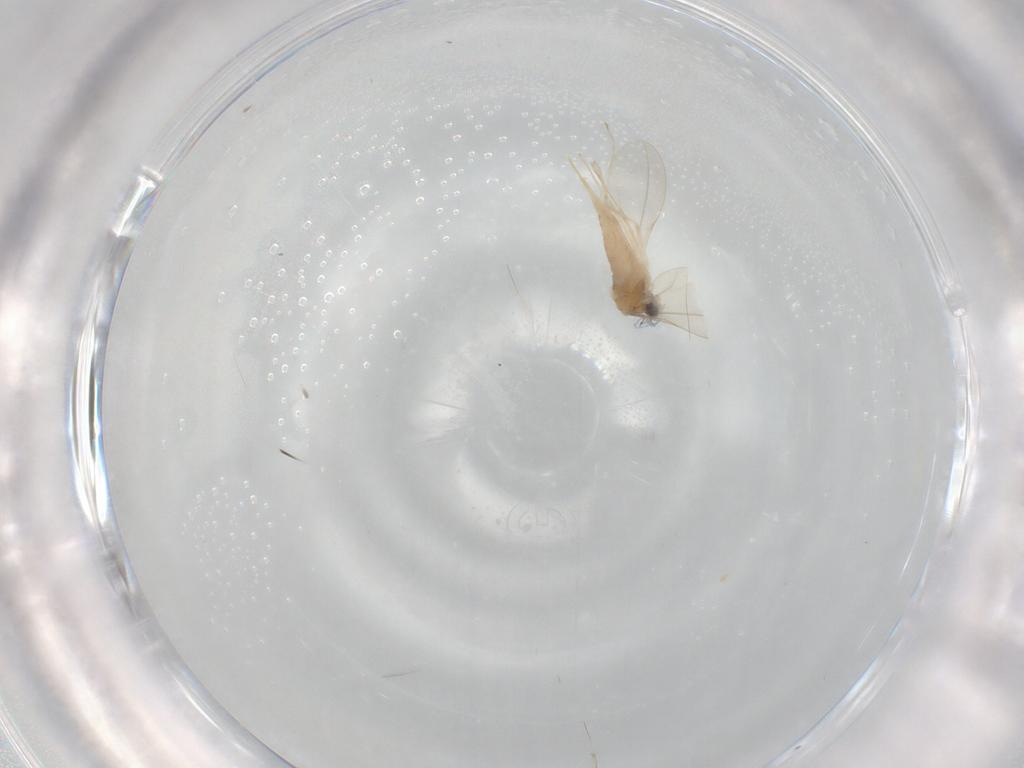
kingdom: Animalia
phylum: Arthropoda
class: Insecta
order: Diptera
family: Cecidomyiidae
